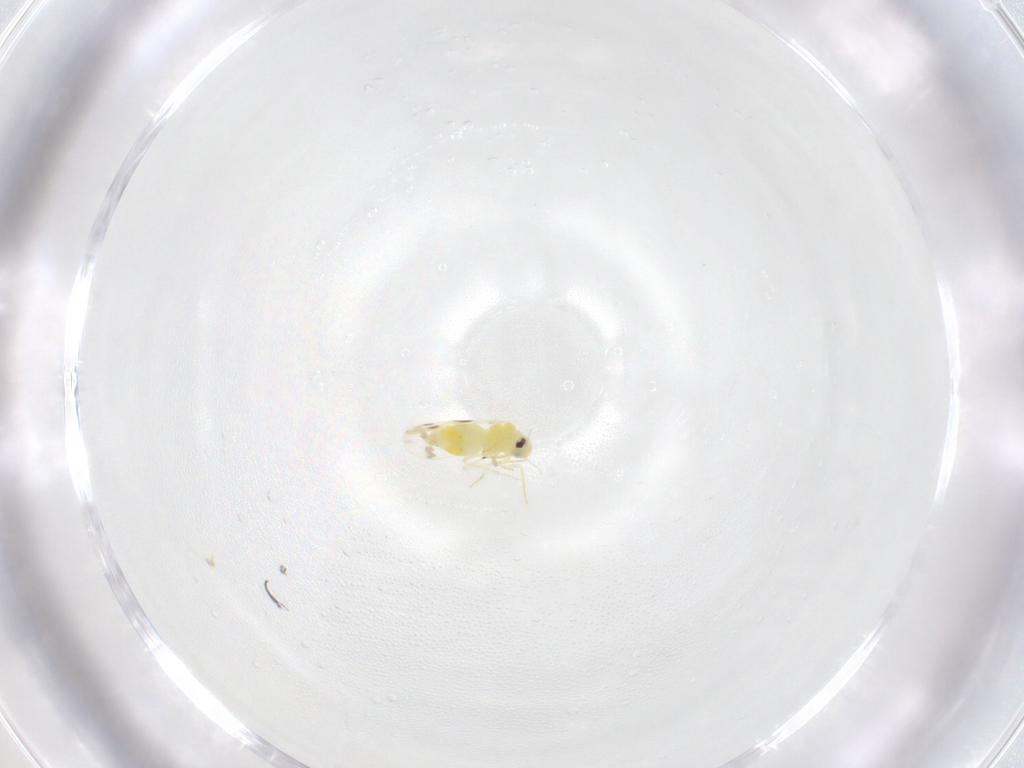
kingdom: Animalia
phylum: Arthropoda
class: Insecta
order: Hemiptera
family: Aleyrodidae
